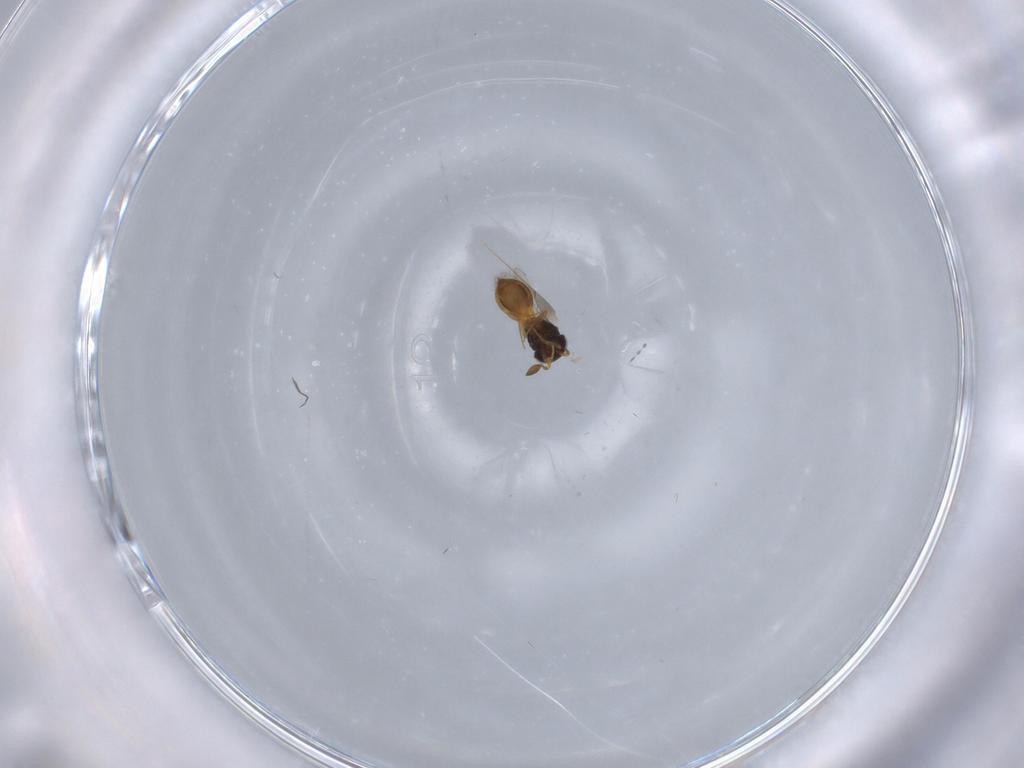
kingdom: Animalia
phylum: Arthropoda
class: Insecta
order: Hymenoptera
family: Scelionidae
